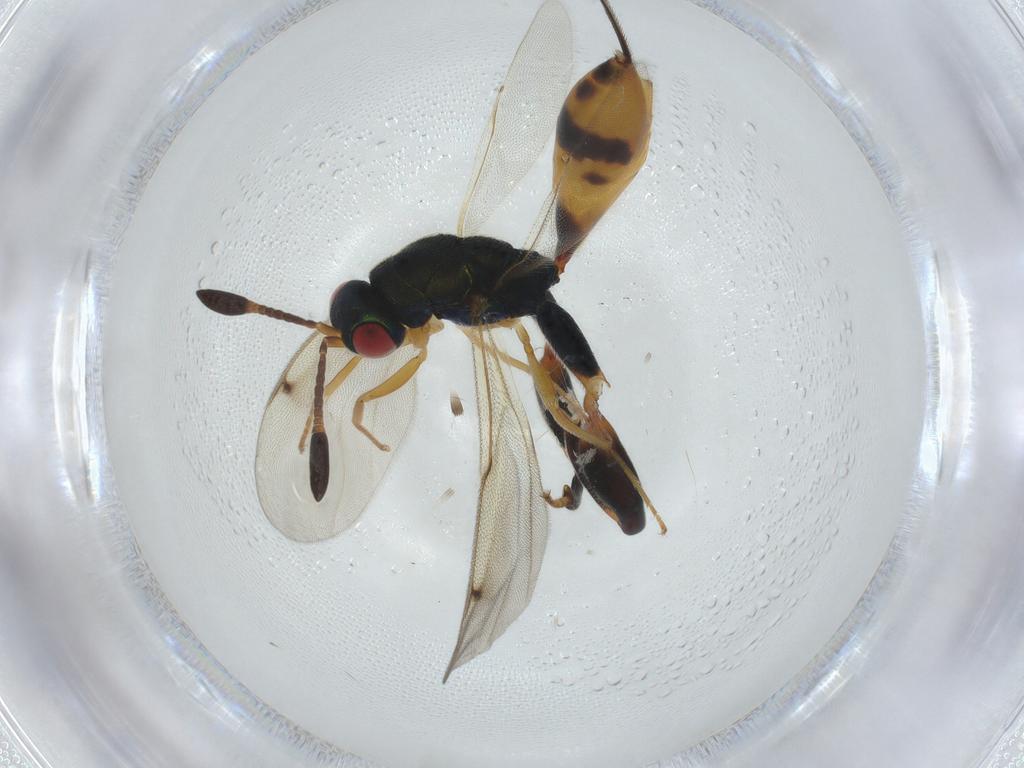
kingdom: Animalia
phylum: Arthropoda
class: Insecta
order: Hymenoptera
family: Torymidae
